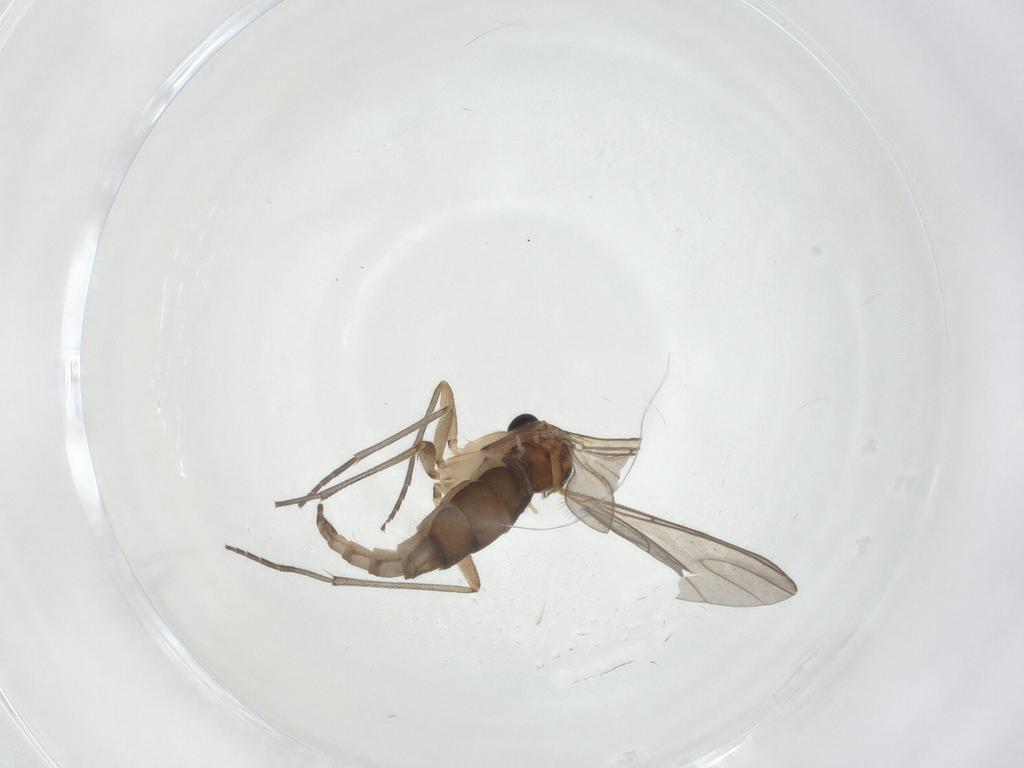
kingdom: Animalia
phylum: Arthropoda
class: Insecta
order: Diptera
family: Sciaridae
